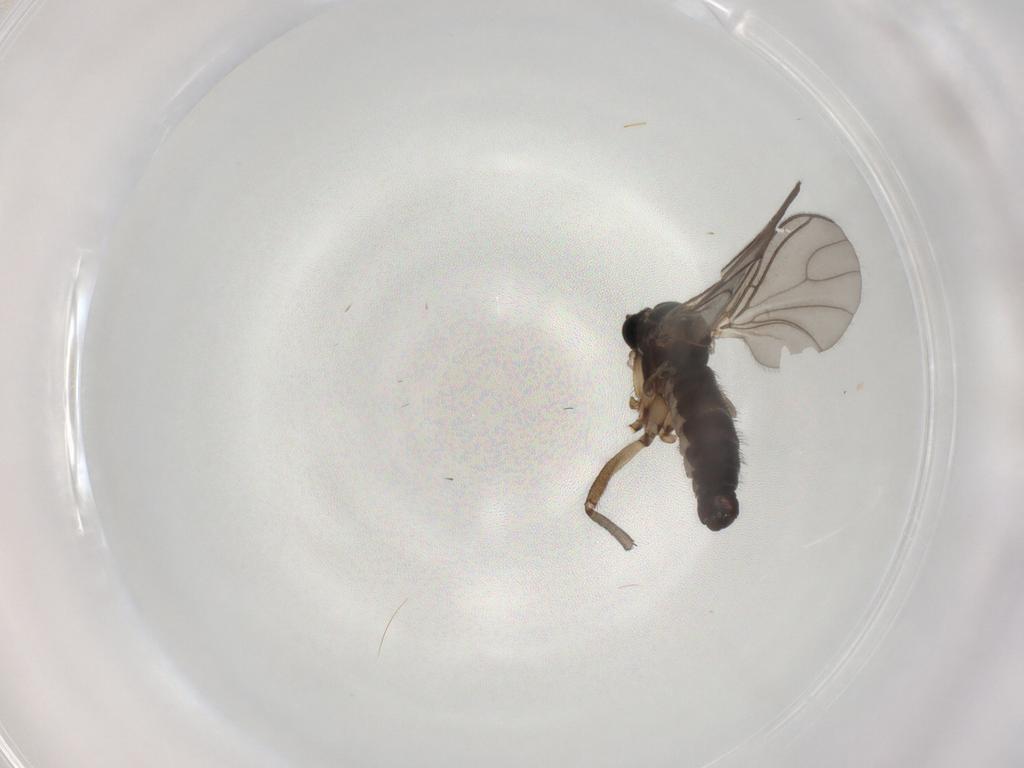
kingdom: Animalia
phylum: Arthropoda
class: Insecta
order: Diptera
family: Sciaridae
